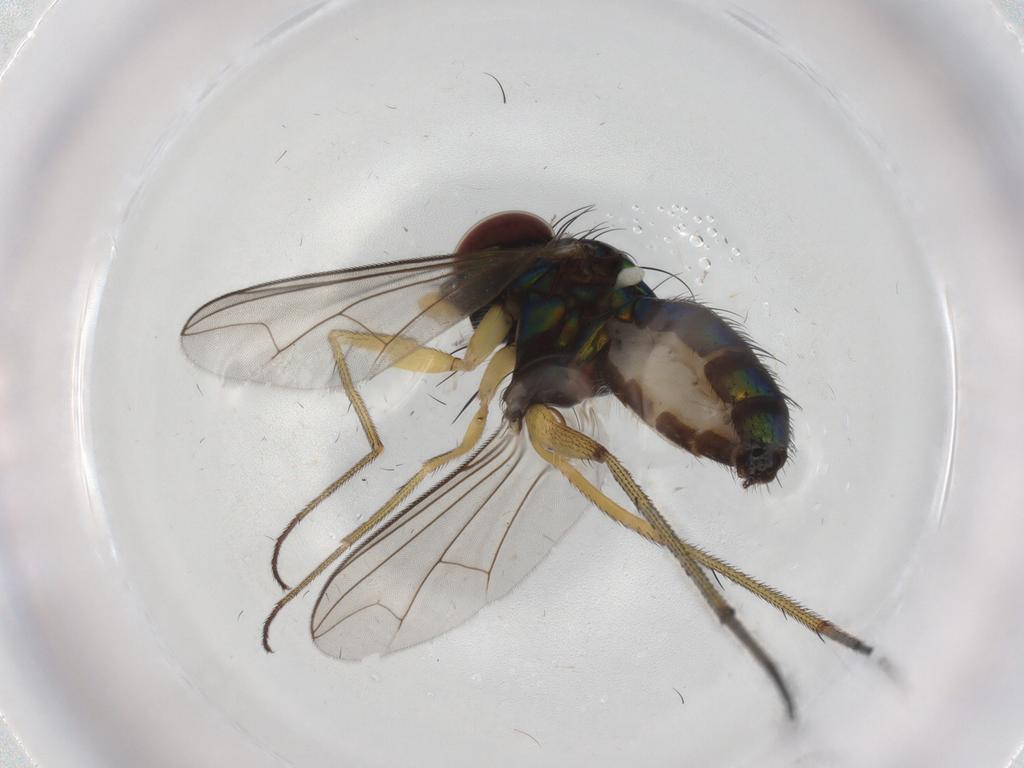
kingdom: Animalia
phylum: Arthropoda
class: Insecta
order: Diptera
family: Dolichopodidae
